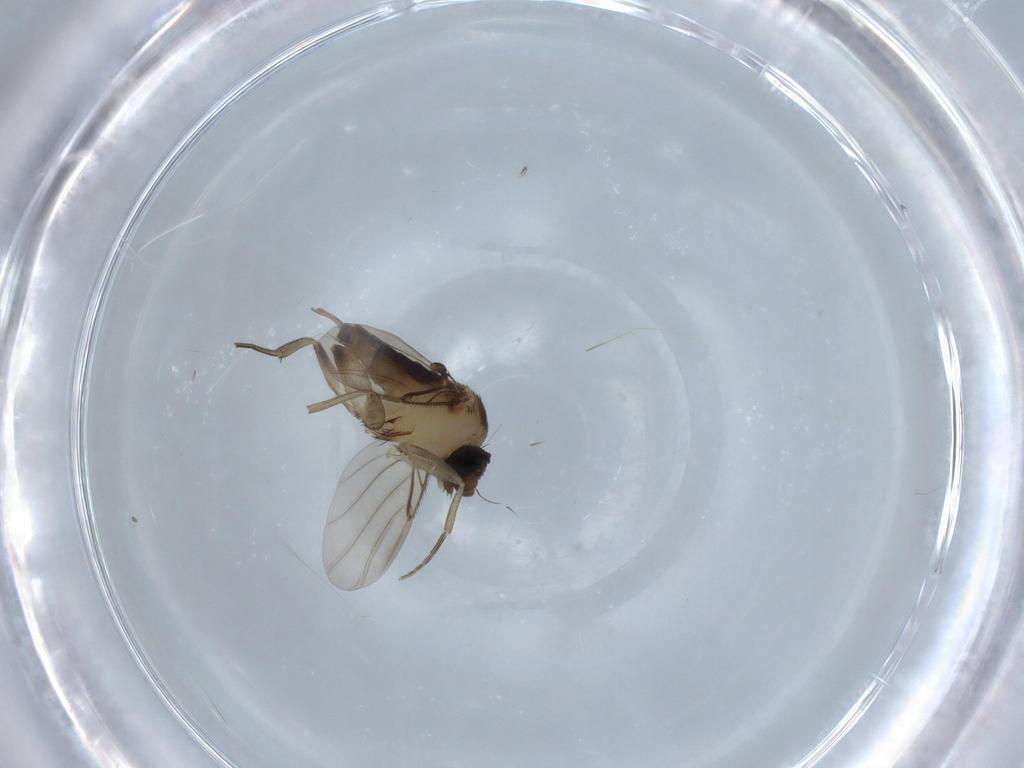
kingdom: Animalia
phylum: Arthropoda
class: Insecta
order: Diptera
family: Phoridae
